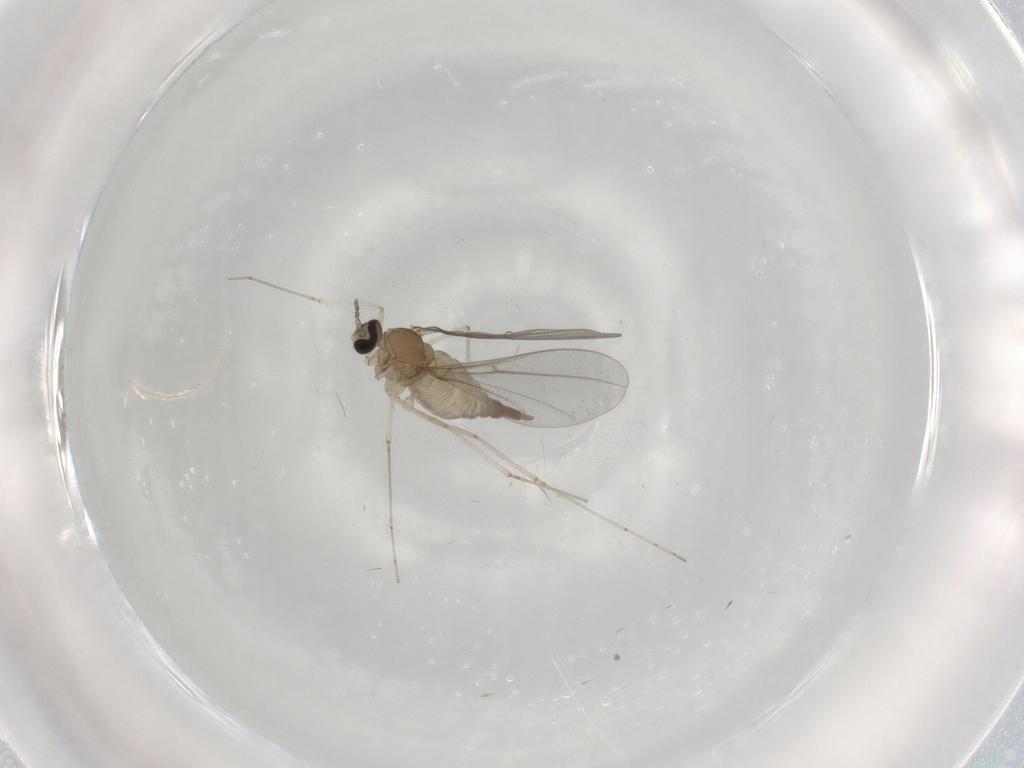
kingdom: Animalia
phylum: Arthropoda
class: Insecta
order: Diptera
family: Cecidomyiidae
